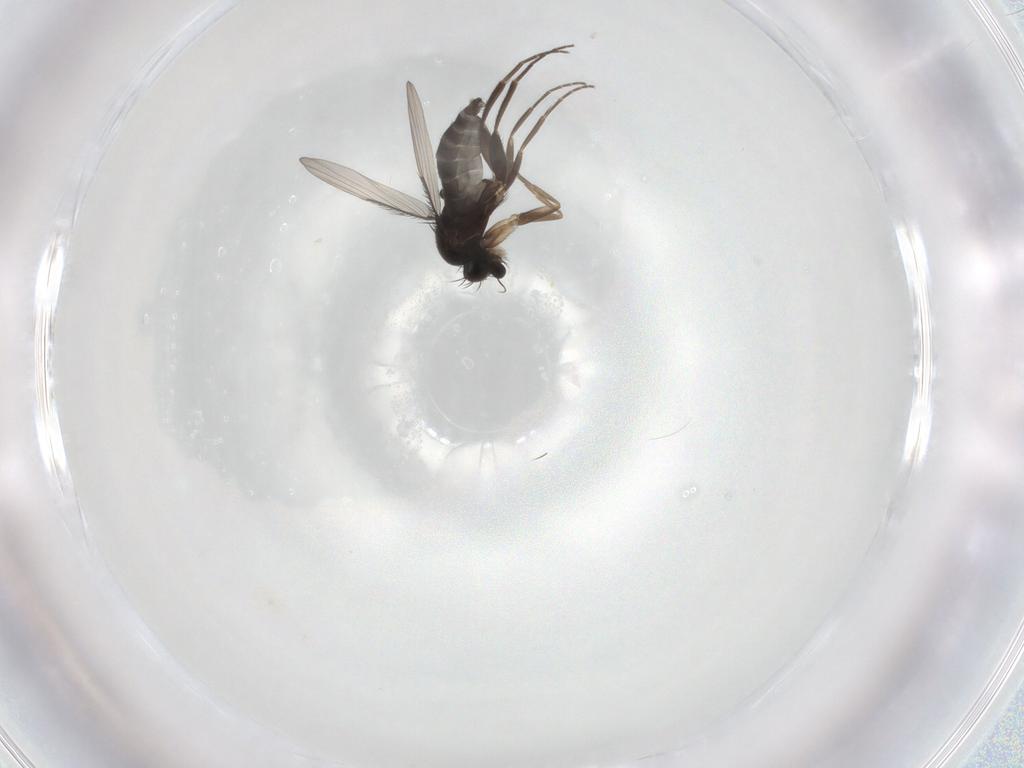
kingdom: Animalia
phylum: Arthropoda
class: Insecta
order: Diptera
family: Phoridae
